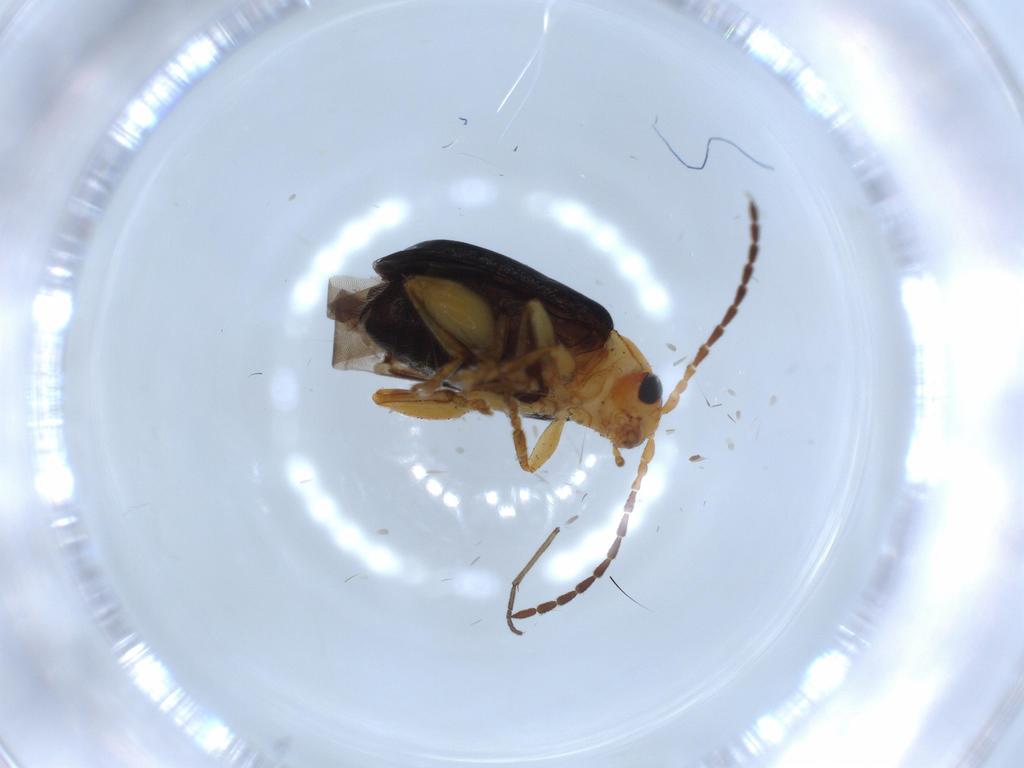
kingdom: Animalia
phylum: Arthropoda
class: Insecta
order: Coleoptera
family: Chrysomelidae
